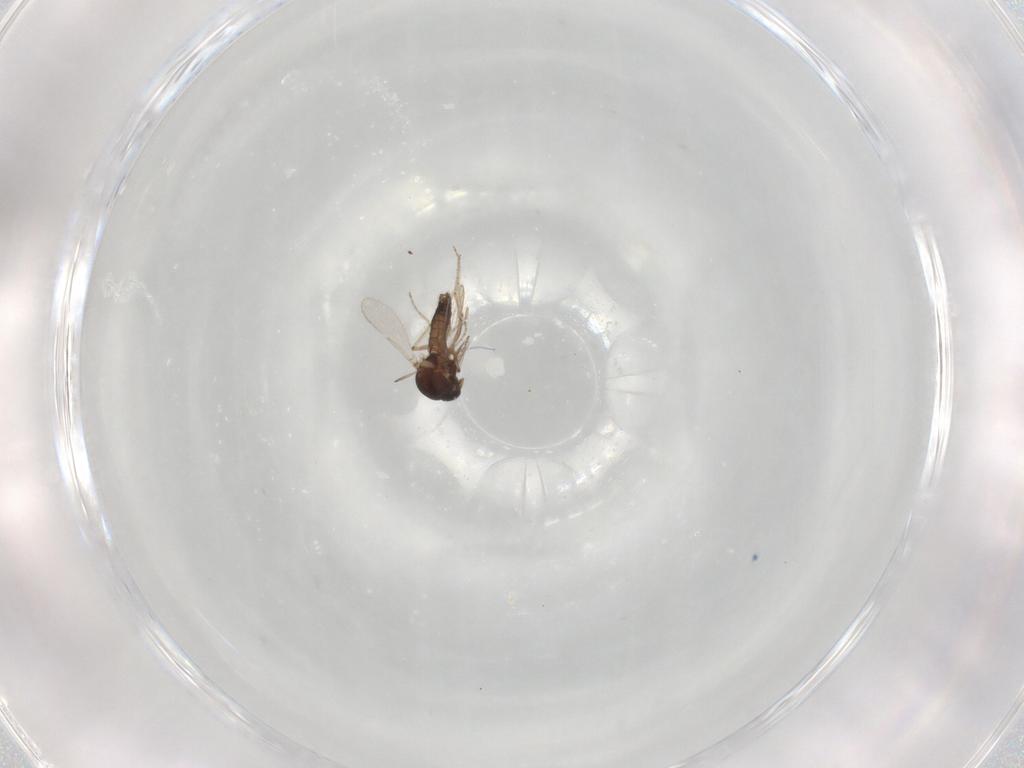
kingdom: Animalia
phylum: Arthropoda
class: Insecta
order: Diptera
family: Ceratopogonidae
